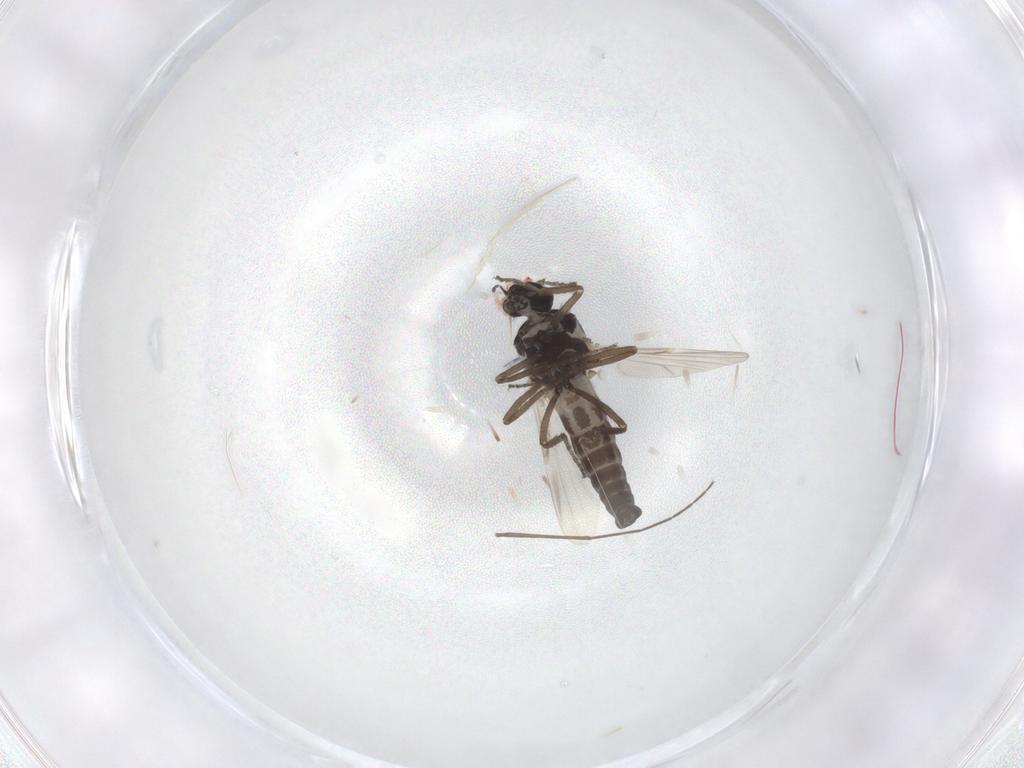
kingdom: Animalia
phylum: Arthropoda
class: Insecta
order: Diptera
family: Ceratopogonidae
